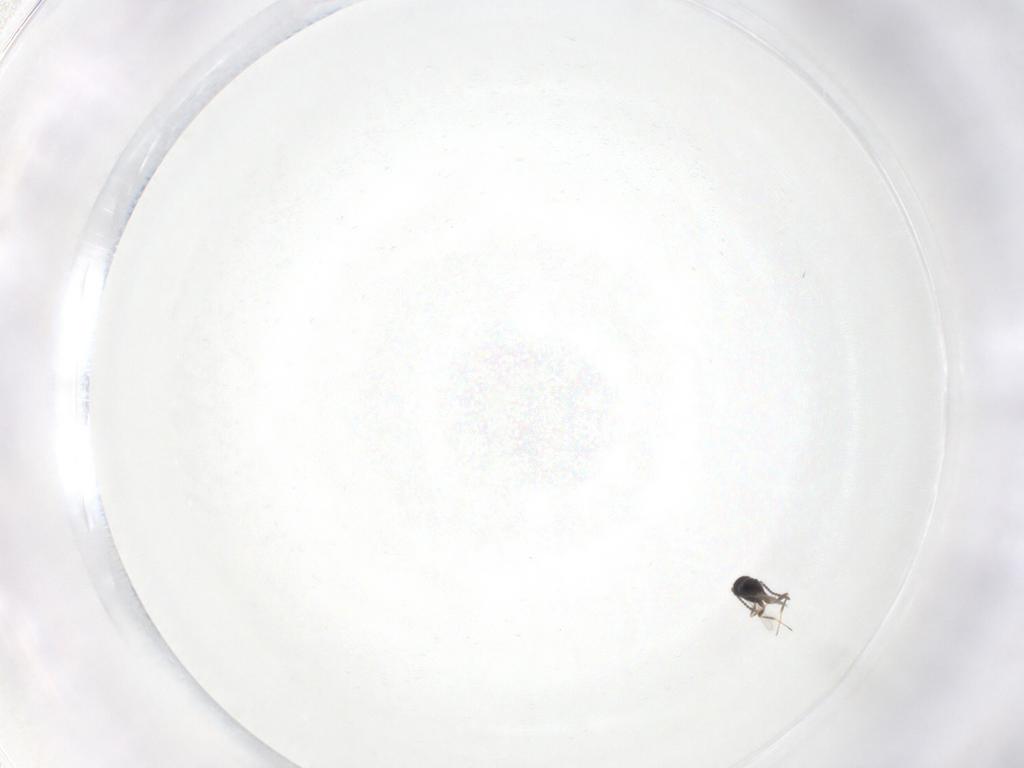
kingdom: Animalia
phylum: Arthropoda
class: Insecta
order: Hymenoptera
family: Scelionidae
